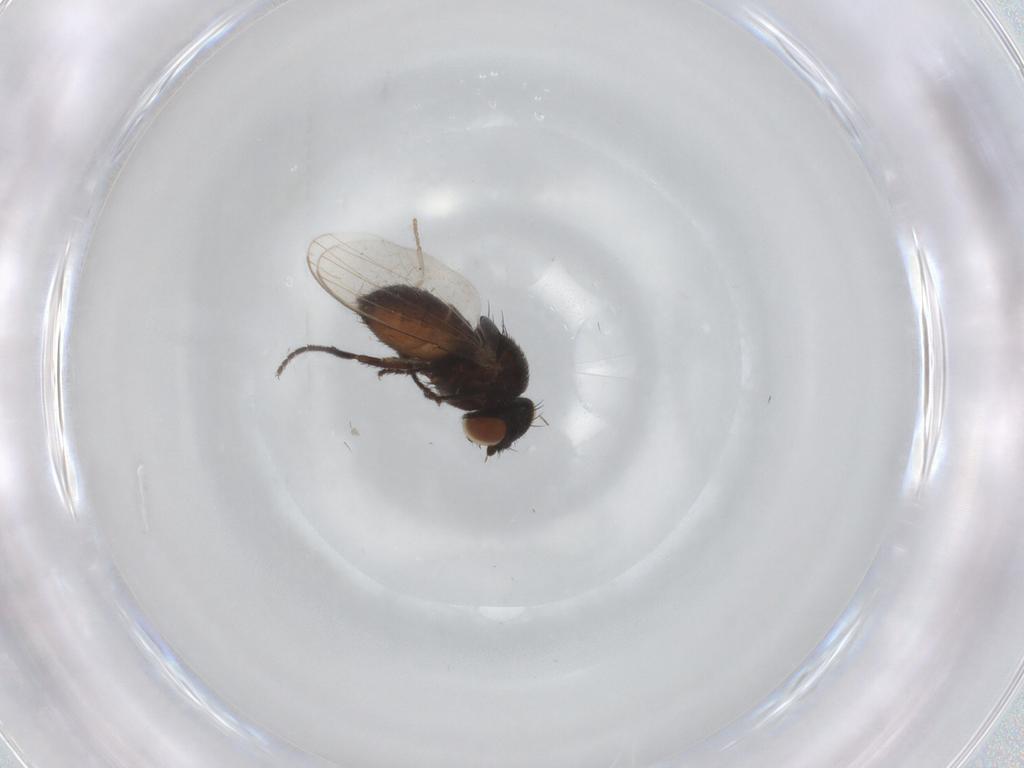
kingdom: Animalia
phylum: Arthropoda
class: Insecta
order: Diptera
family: Milichiidae
